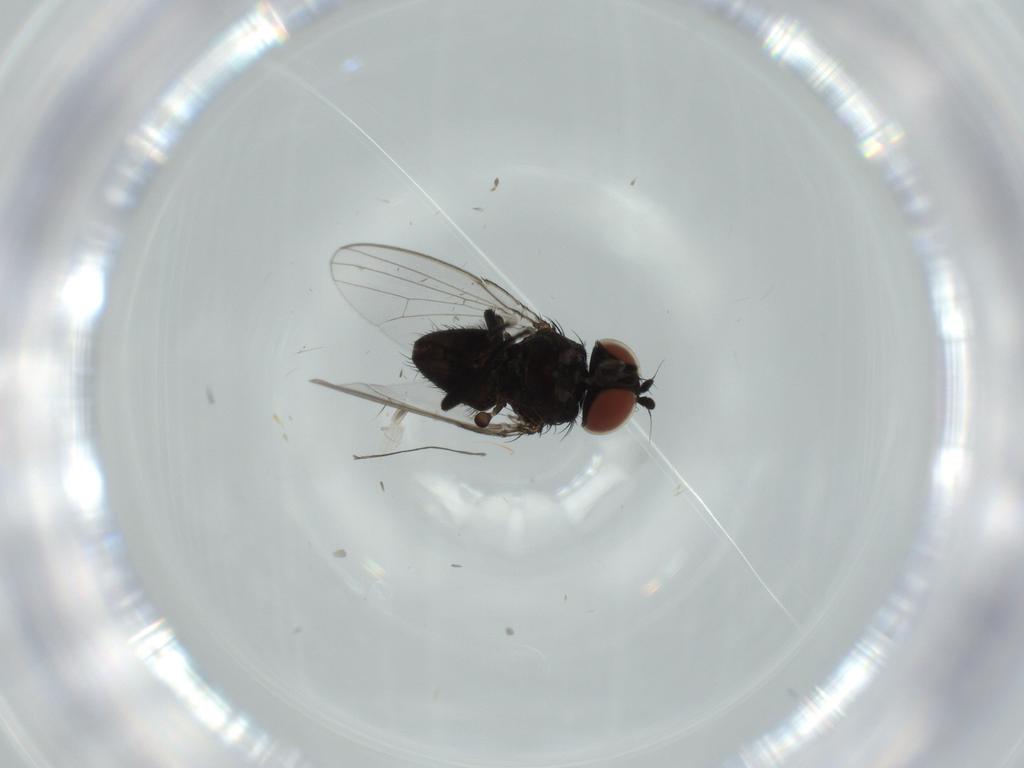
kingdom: Animalia
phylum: Arthropoda
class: Insecta
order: Diptera
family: Milichiidae
